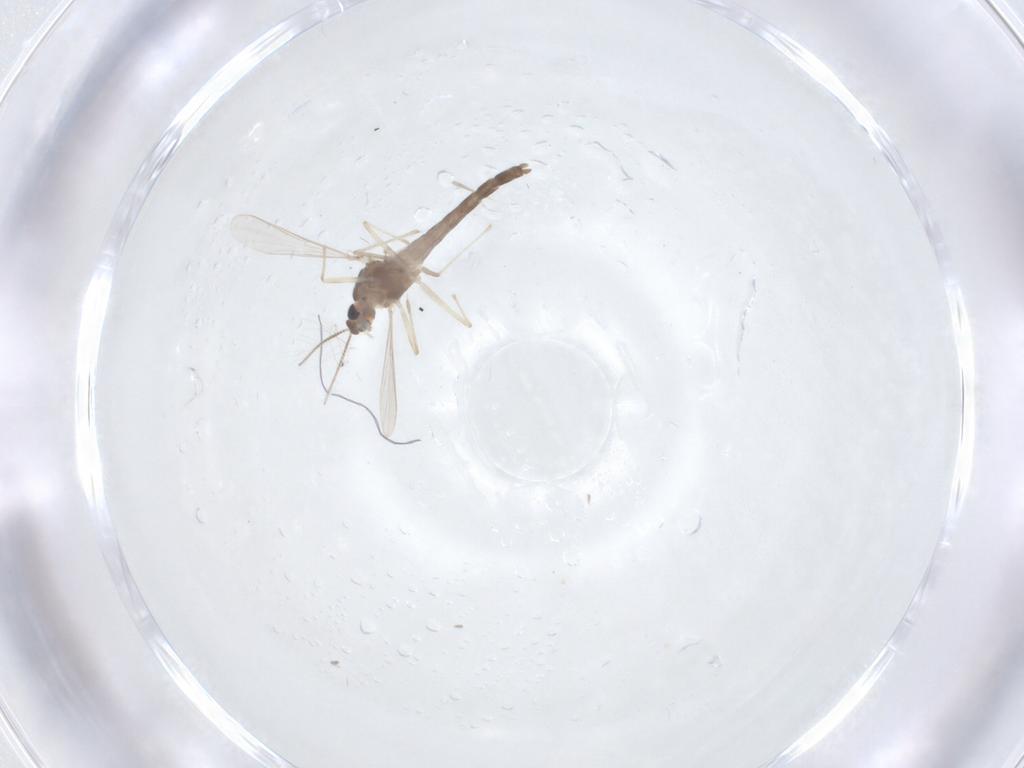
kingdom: Animalia
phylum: Arthropoda
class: Insecta
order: Diptera
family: Chironomidae
